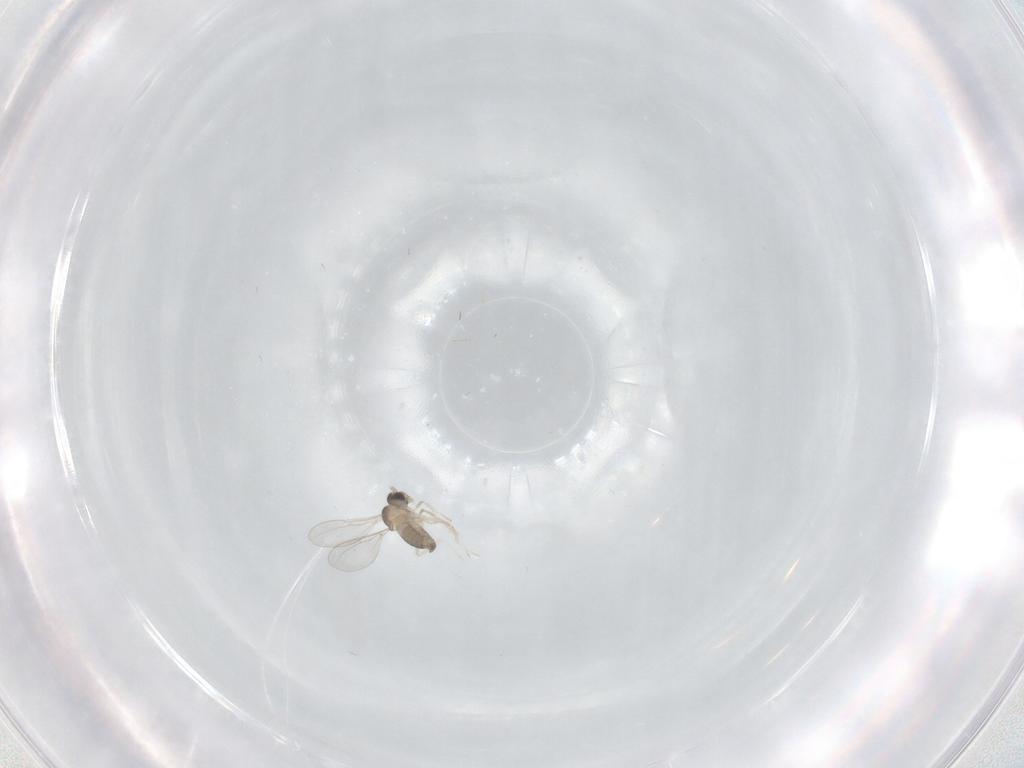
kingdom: Animalia
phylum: Arthropoda
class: Insecta
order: Diptera
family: Cecidomyiidae
